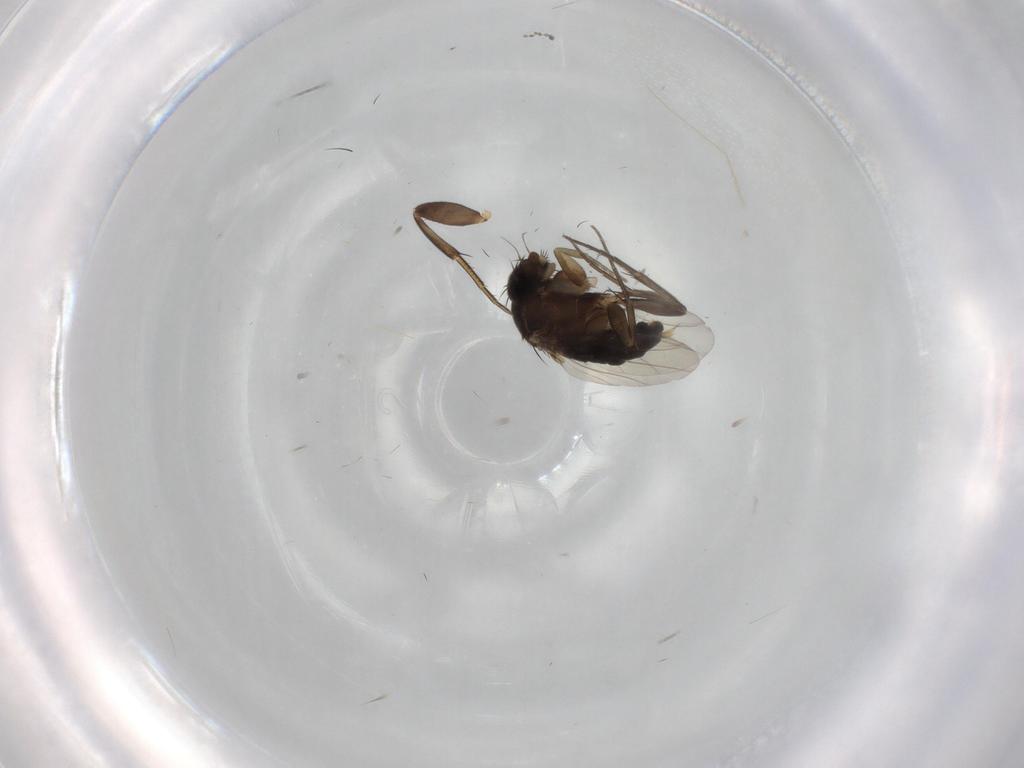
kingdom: Animalia
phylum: Arthropoda
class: Insecta
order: Diptera
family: Phoridae
